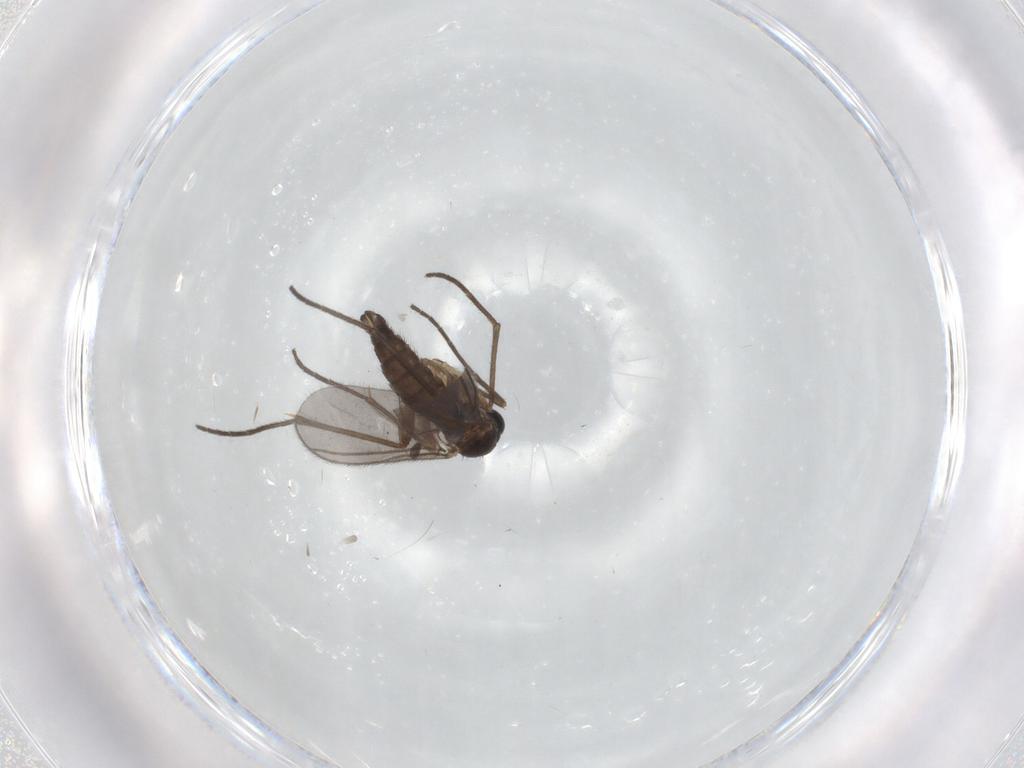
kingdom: Animalia
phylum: Arthropoda
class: Insecta
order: Diptera
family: Sciaridae
